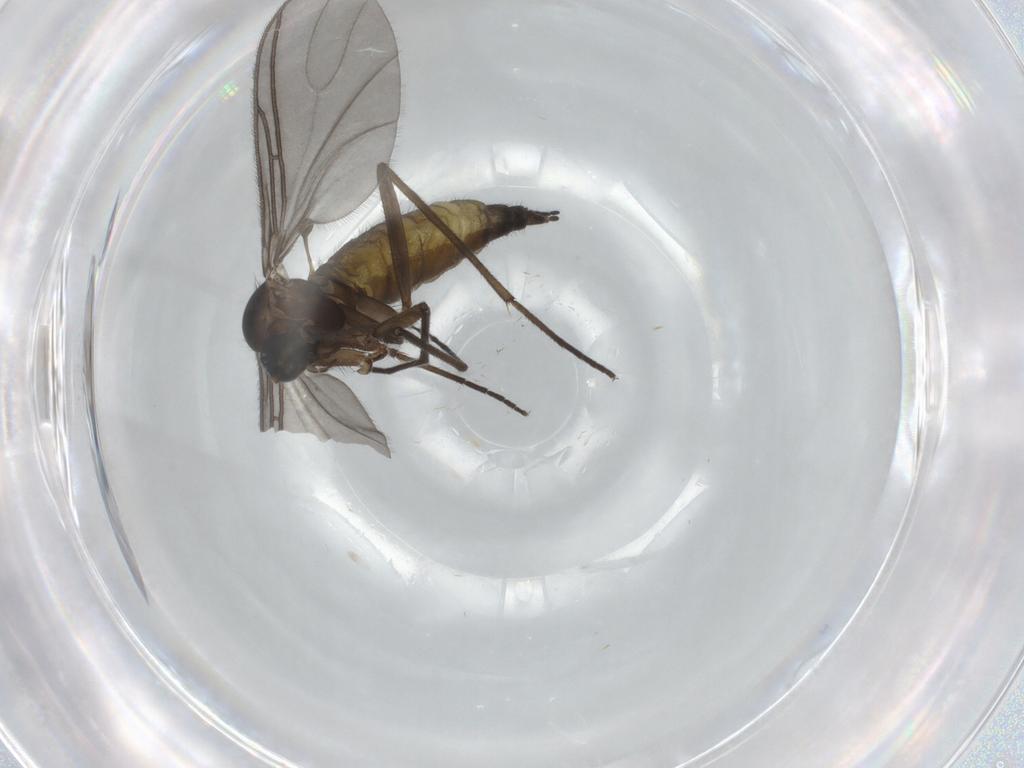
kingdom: Animalia
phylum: Arthropoda
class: Insecta
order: Diptera
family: Sciaridae
